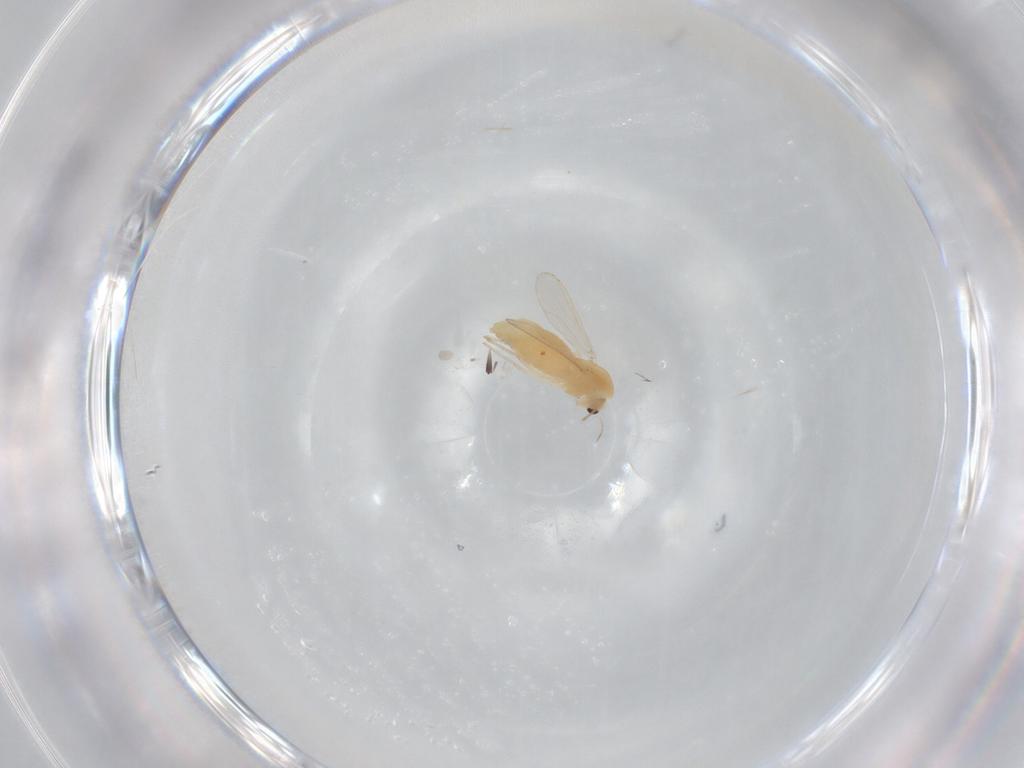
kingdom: Animalia
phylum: Arthropoda
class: Insecta
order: Diptera
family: Chironomidae
